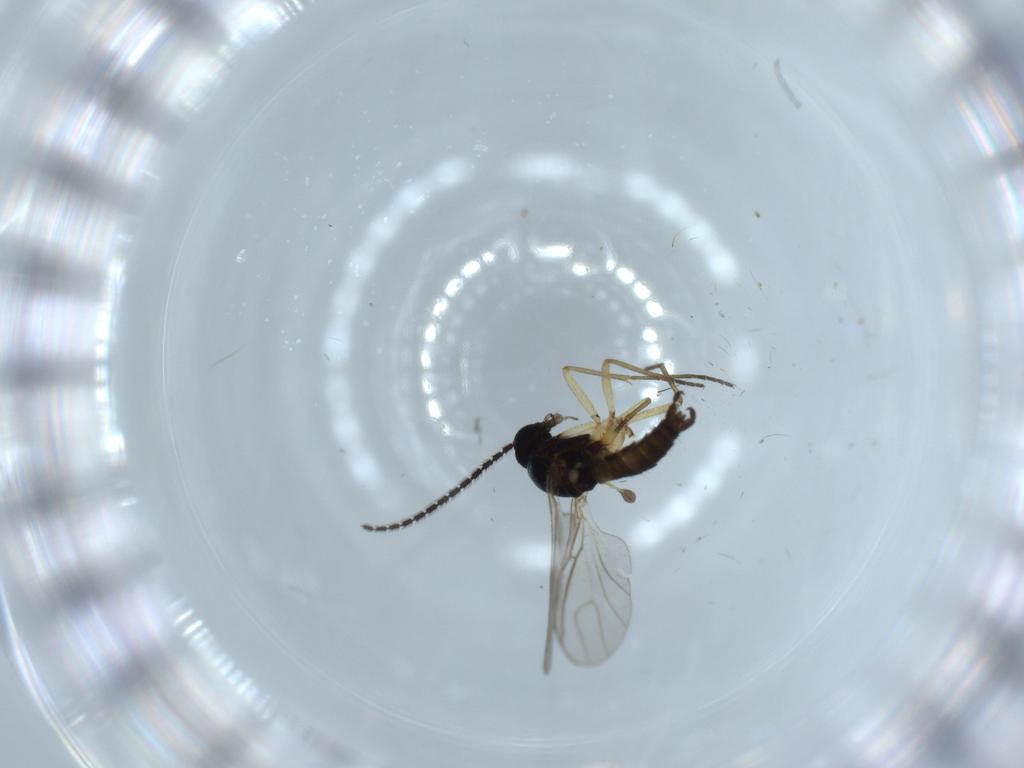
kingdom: Animalia
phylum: Arthropoda
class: Insecta
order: Diptera
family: Sciaridae
